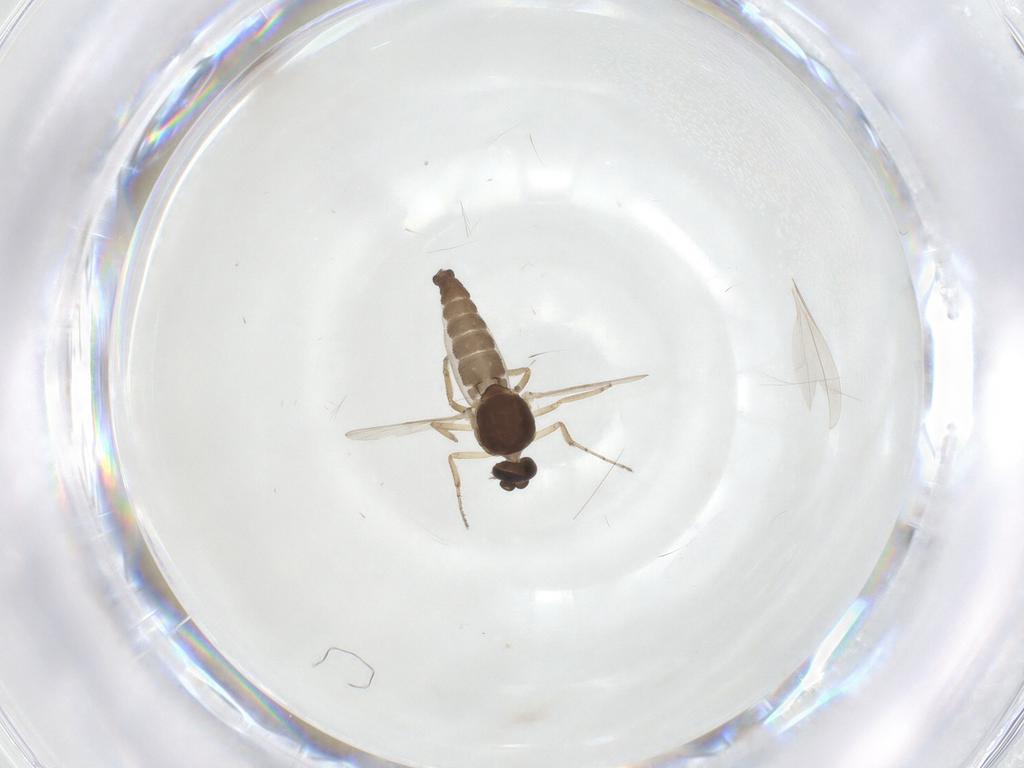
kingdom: Animalia
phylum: Arthropoda
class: Insecta
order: Diptera
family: Ceratopogonidae
